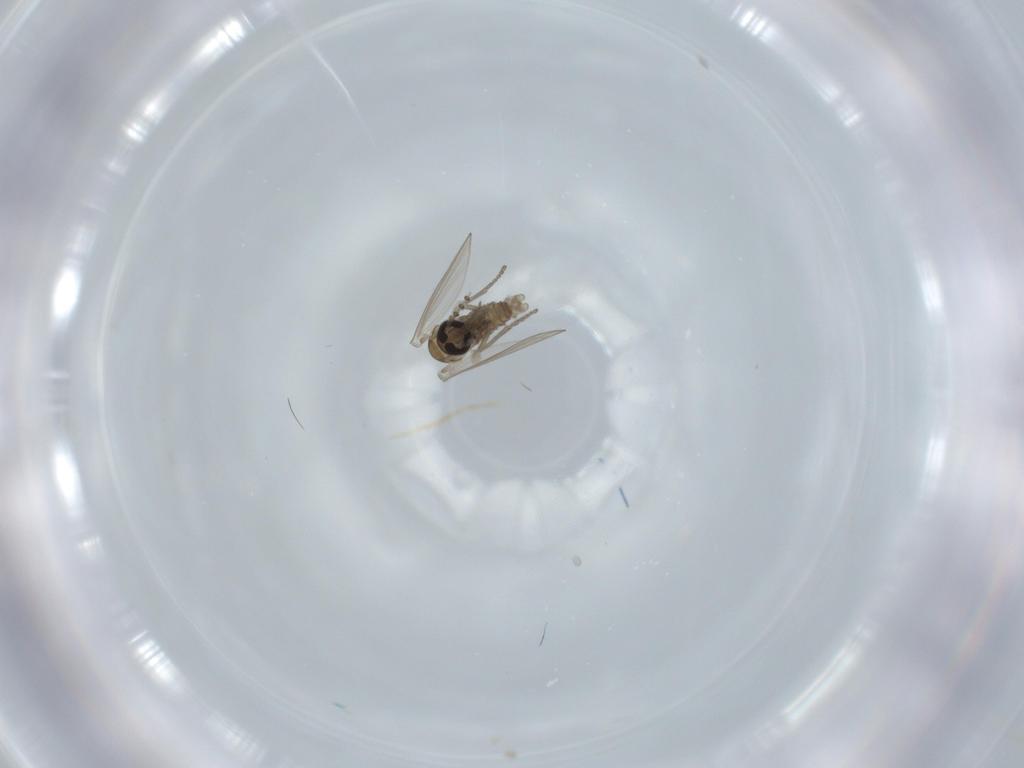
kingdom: Animalia
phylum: Arthropoda
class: Insecta
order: Diptera
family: Psychodidae
